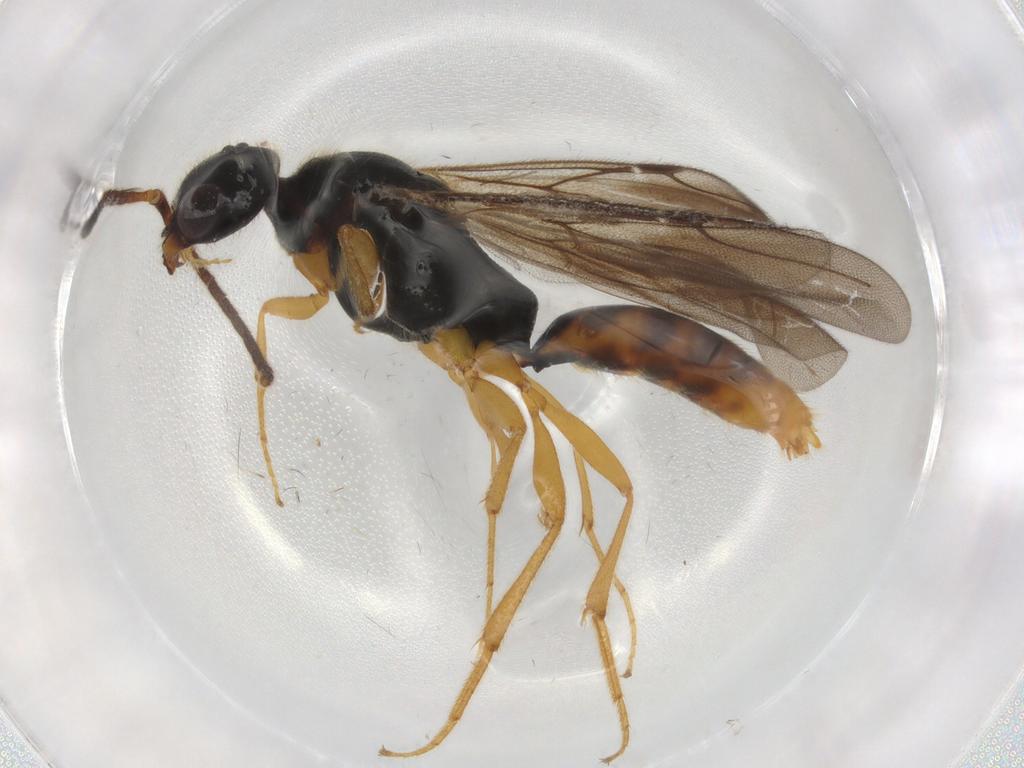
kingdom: Animalia
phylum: Arthropoda
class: Insecta
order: Hymenoptera
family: Bethylidae
